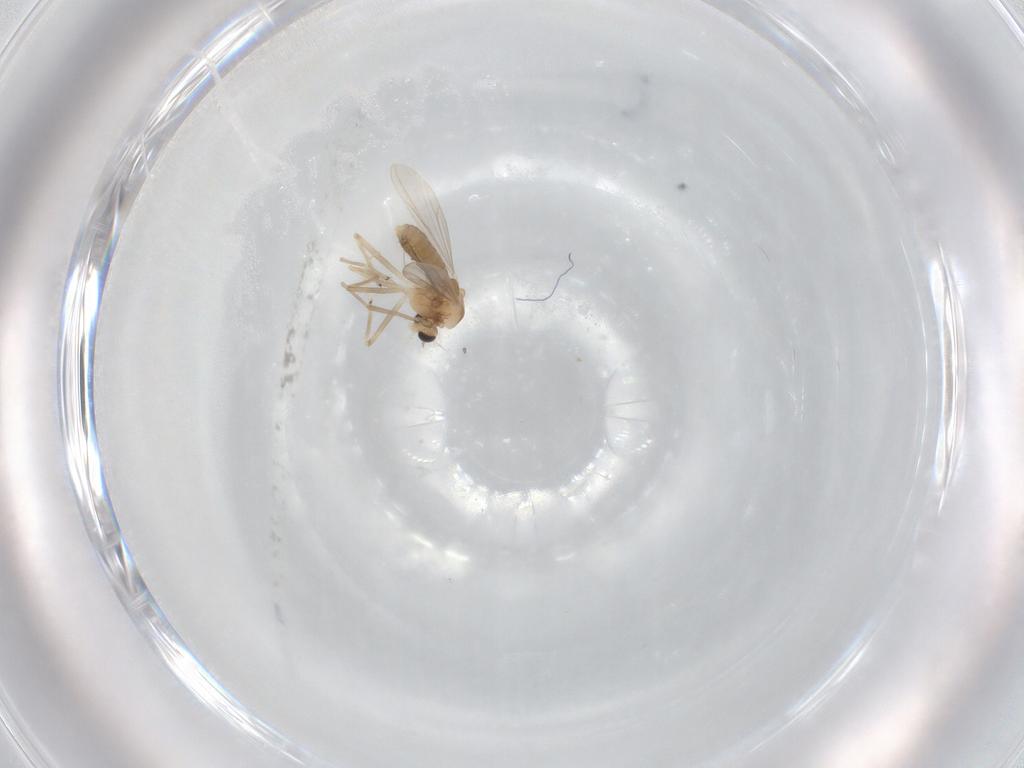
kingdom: Animalia
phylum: Arthropoda
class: Insecta
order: Diptera
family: Chironomidae
